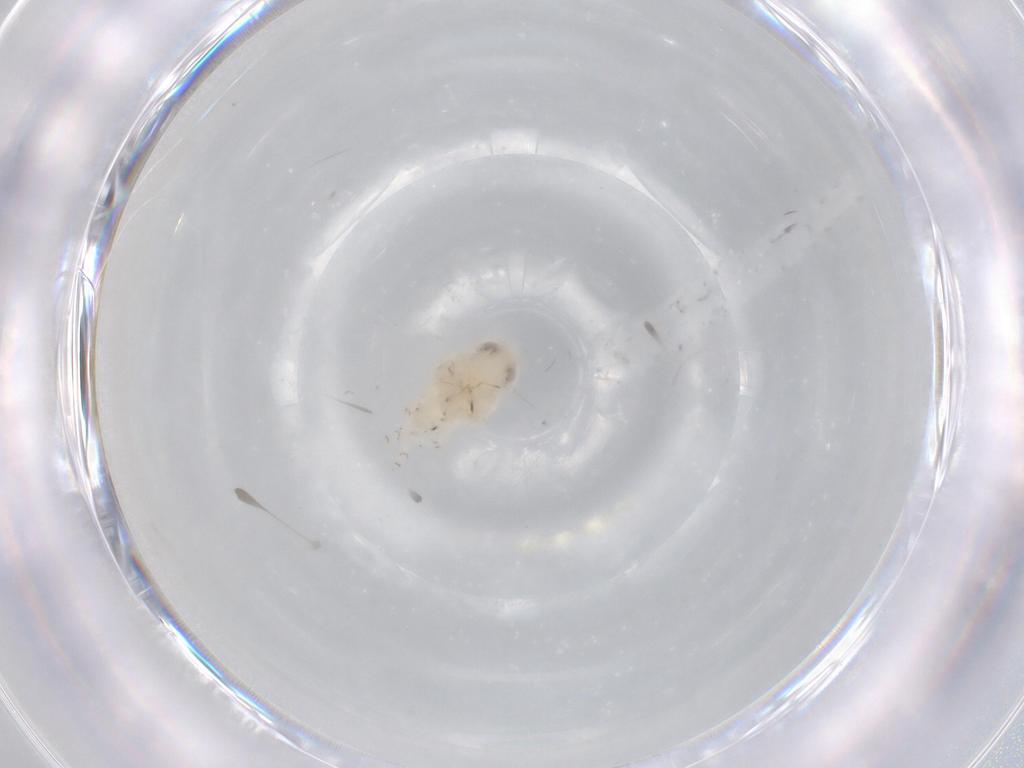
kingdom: Animalia
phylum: Arthropoda
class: Insecta
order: Hemiptera
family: Nogodinidae
